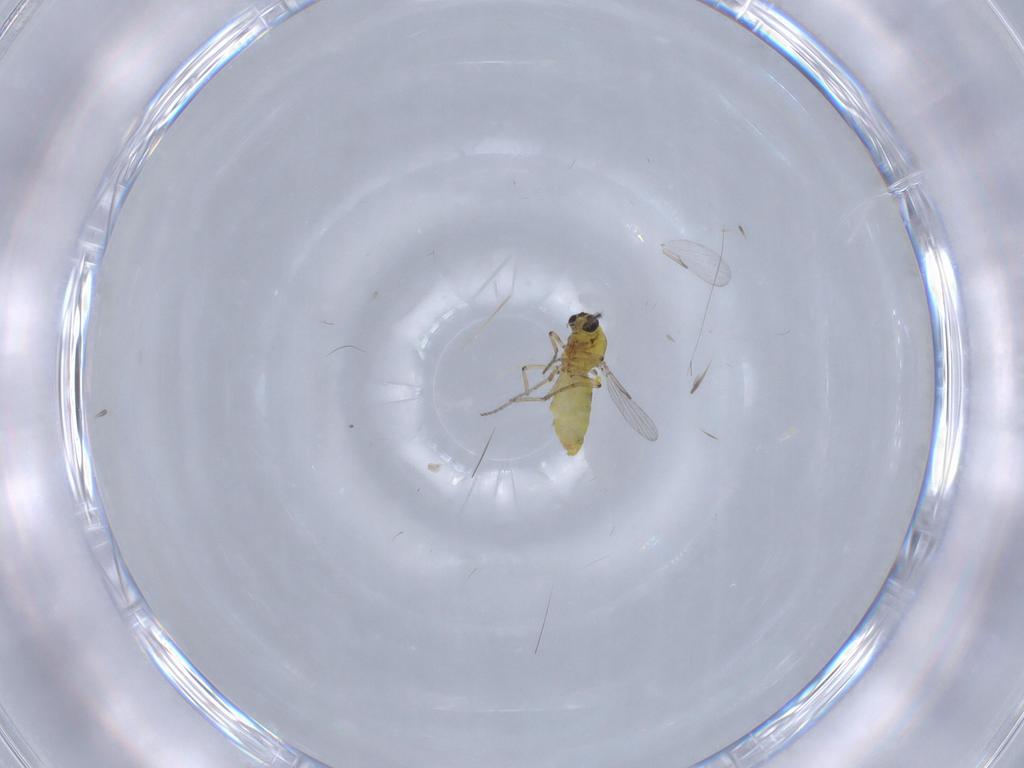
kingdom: Animalia
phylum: Arthropoda
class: Insecta
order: Diptera
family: Ceratopogonidae
